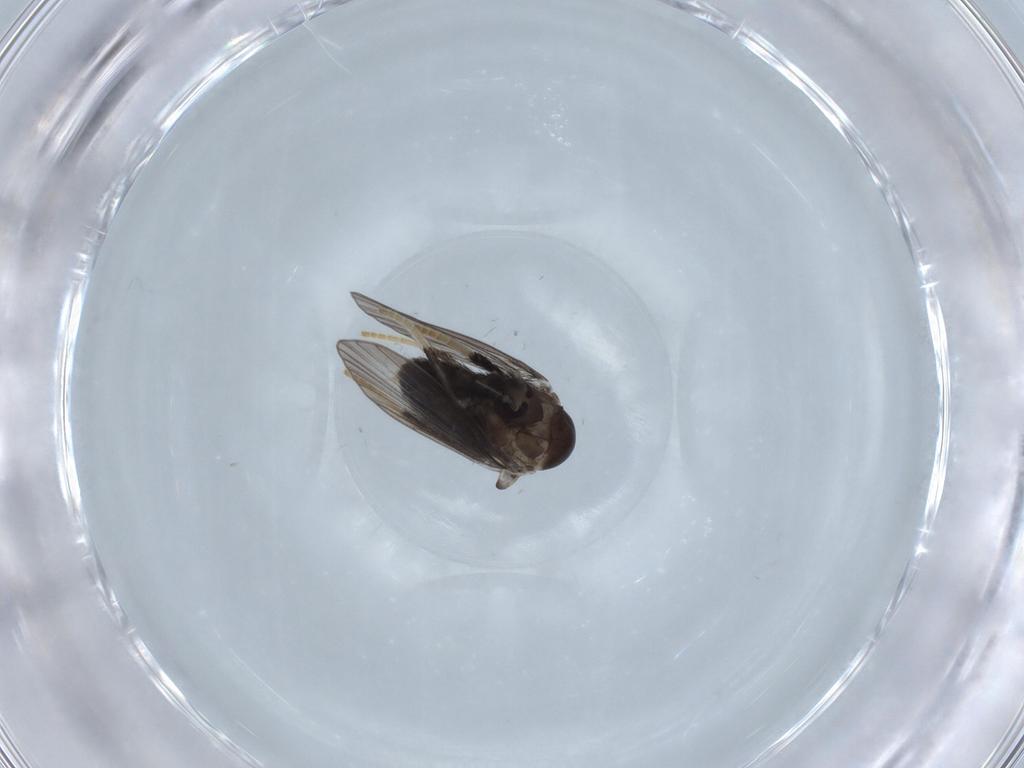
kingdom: Animalia
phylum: Arthropoda
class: Insecta
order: Diptera
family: Psychodidae
